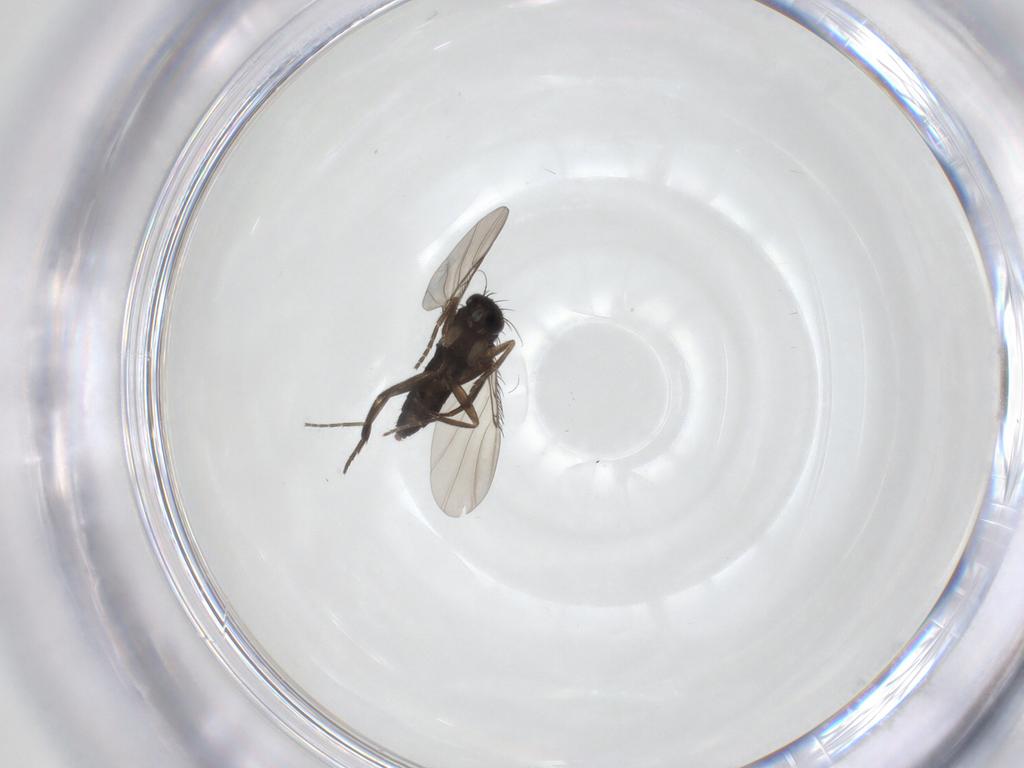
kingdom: Animalia
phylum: Arthropoda
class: Insecta
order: Diptera
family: Phoridae
